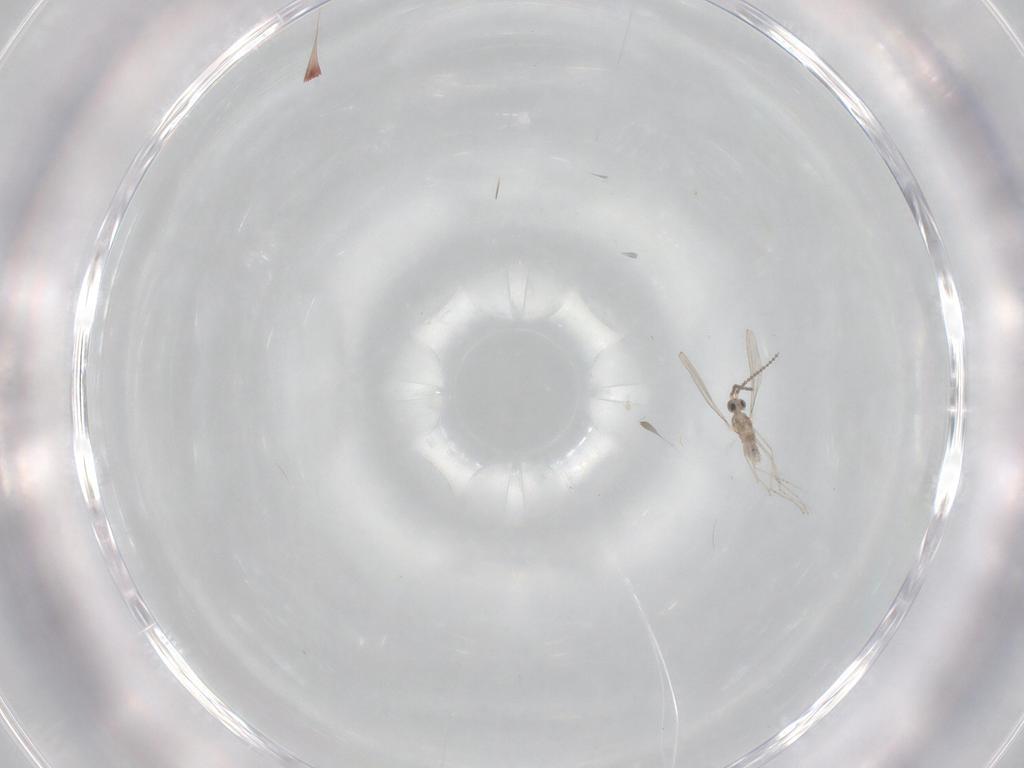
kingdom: Animalia
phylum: Arthropoda
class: Insecta
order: Diptera
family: Cecidomyiidae
